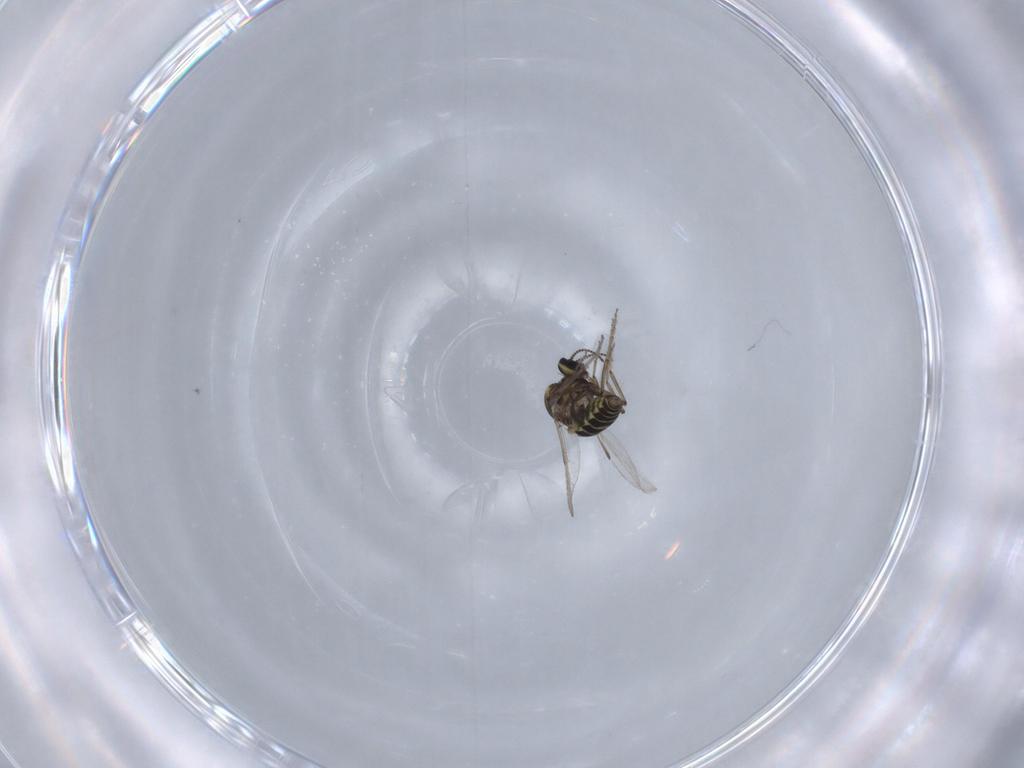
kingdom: Animalia
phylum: Arthropoda
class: Insecta
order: Diptera
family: Ceratopogonidae
